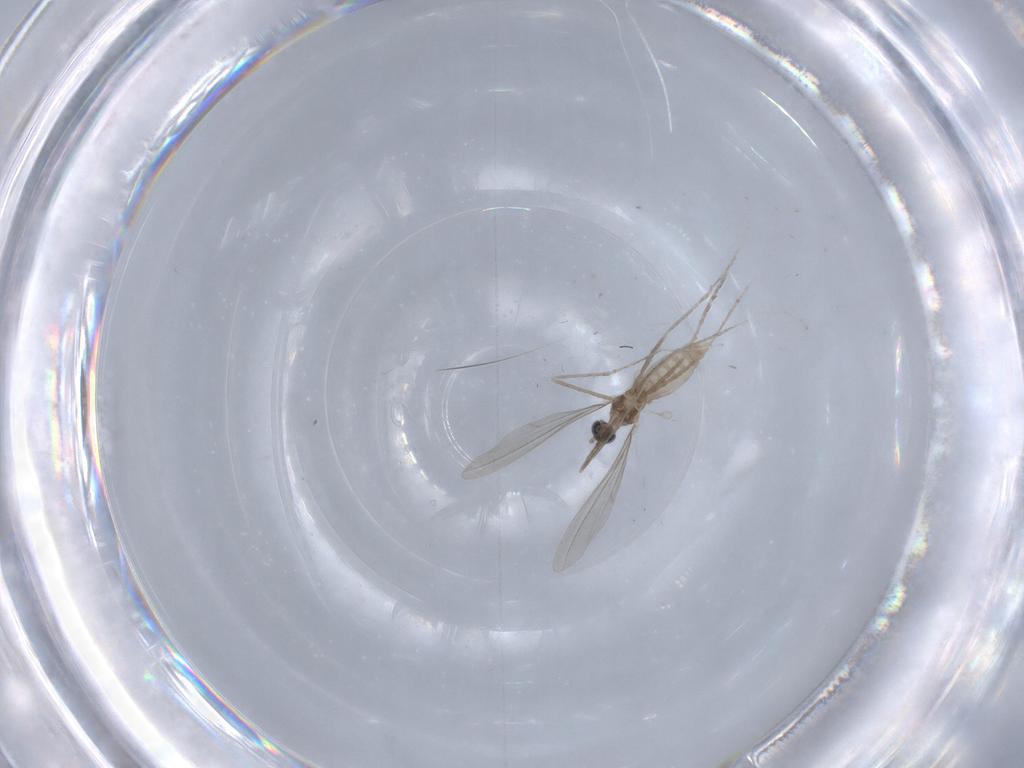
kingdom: Animalia
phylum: Arthropoda
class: Insecta
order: Diptera
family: Cecidomyiidae
